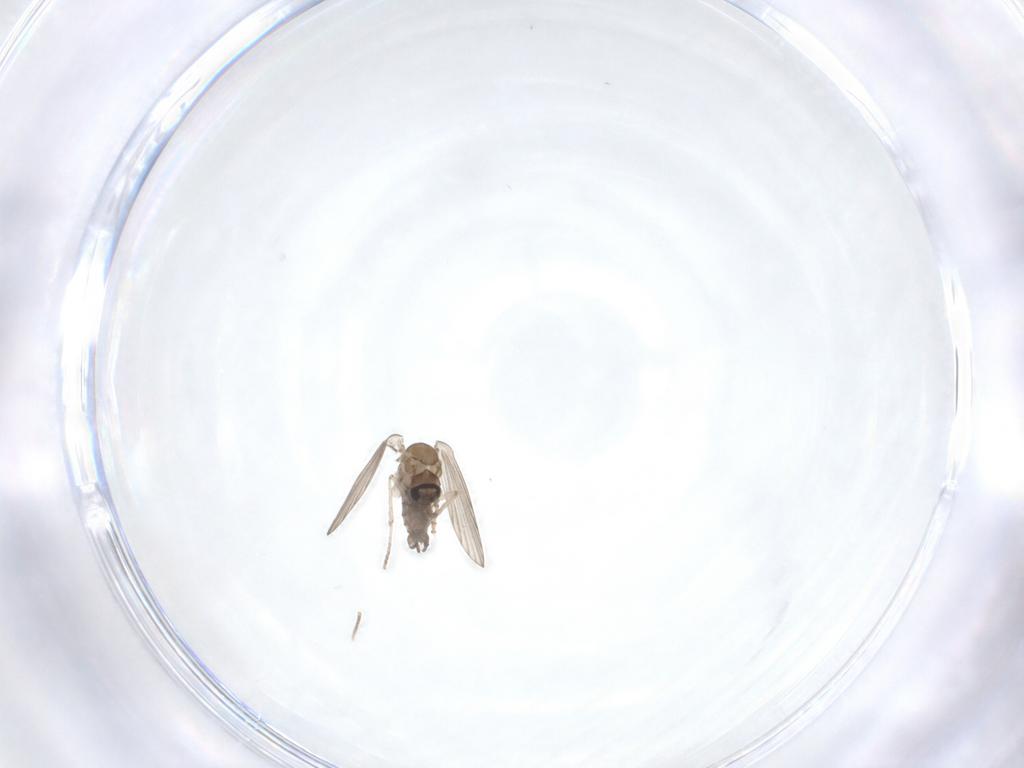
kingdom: Animalia
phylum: Arthropoda
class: Insecta
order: Diptera
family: Psychodidae
